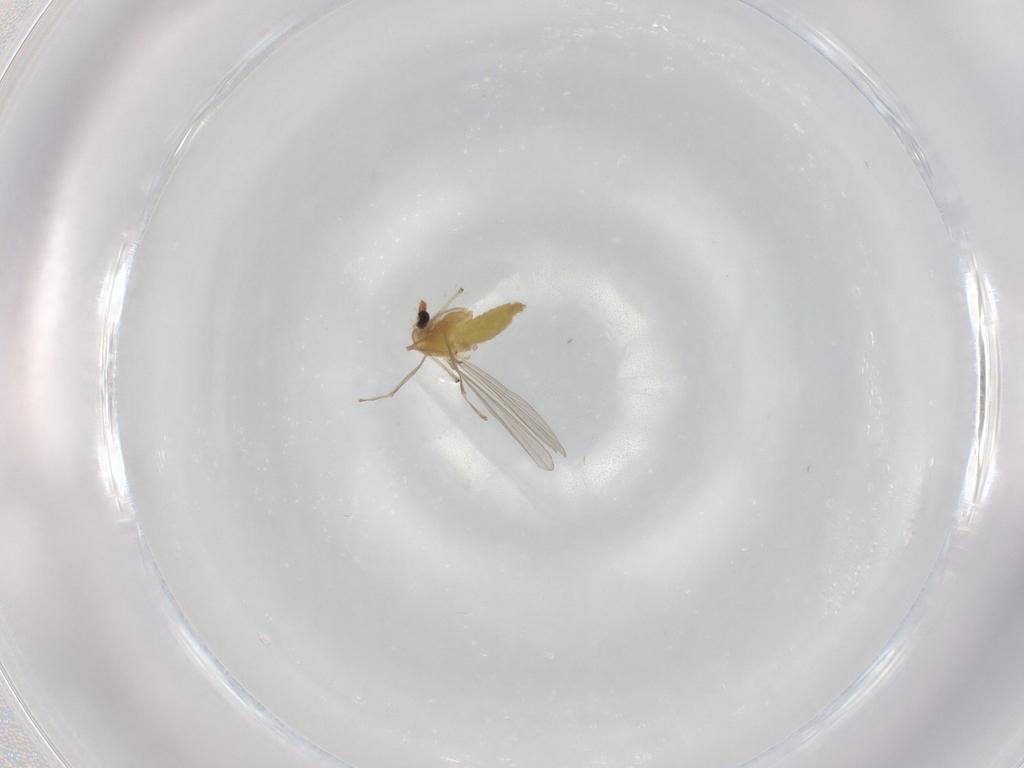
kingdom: Animalia
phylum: Arthropoda
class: Insecta
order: Diptera
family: Chironomidae
